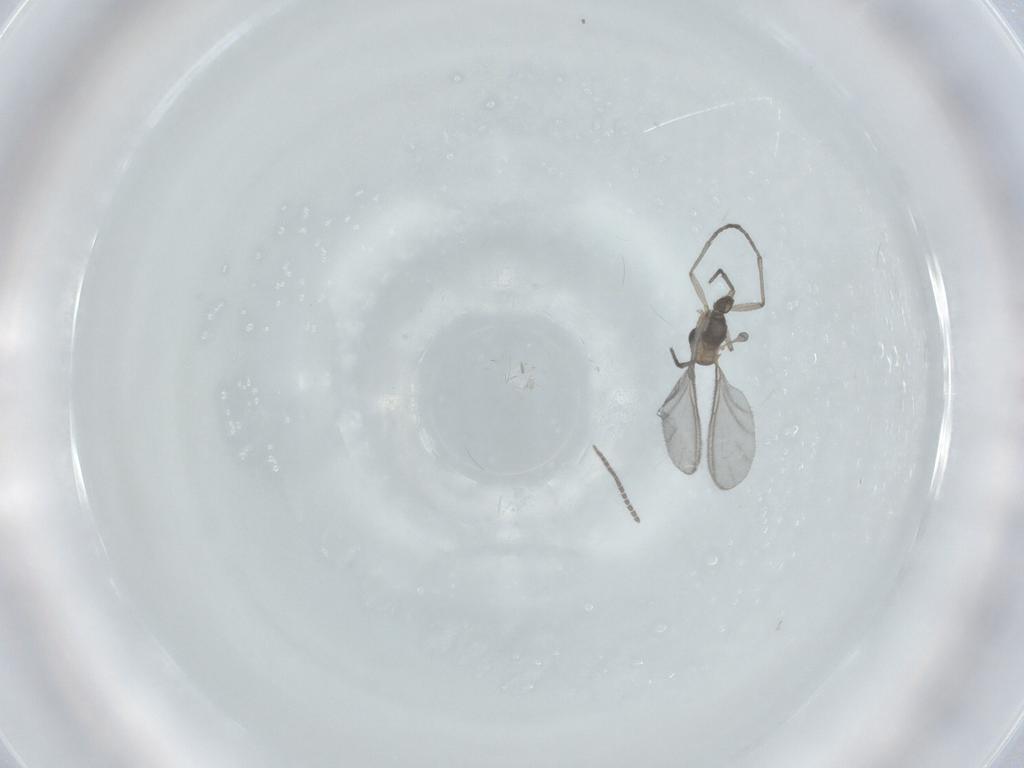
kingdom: Animalia
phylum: Arthropoda
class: Insecta
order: Diptera
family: Sciaridae
